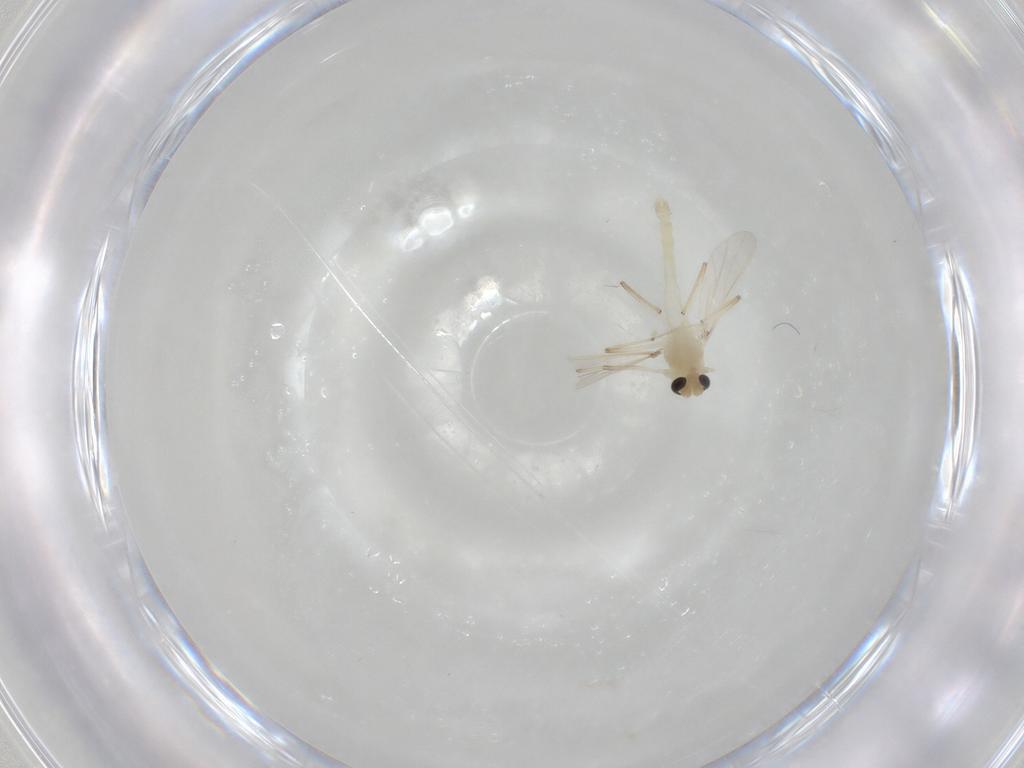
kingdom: Animalia
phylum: Arthropoda
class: Insecta
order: Diptera
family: Chironomidae
